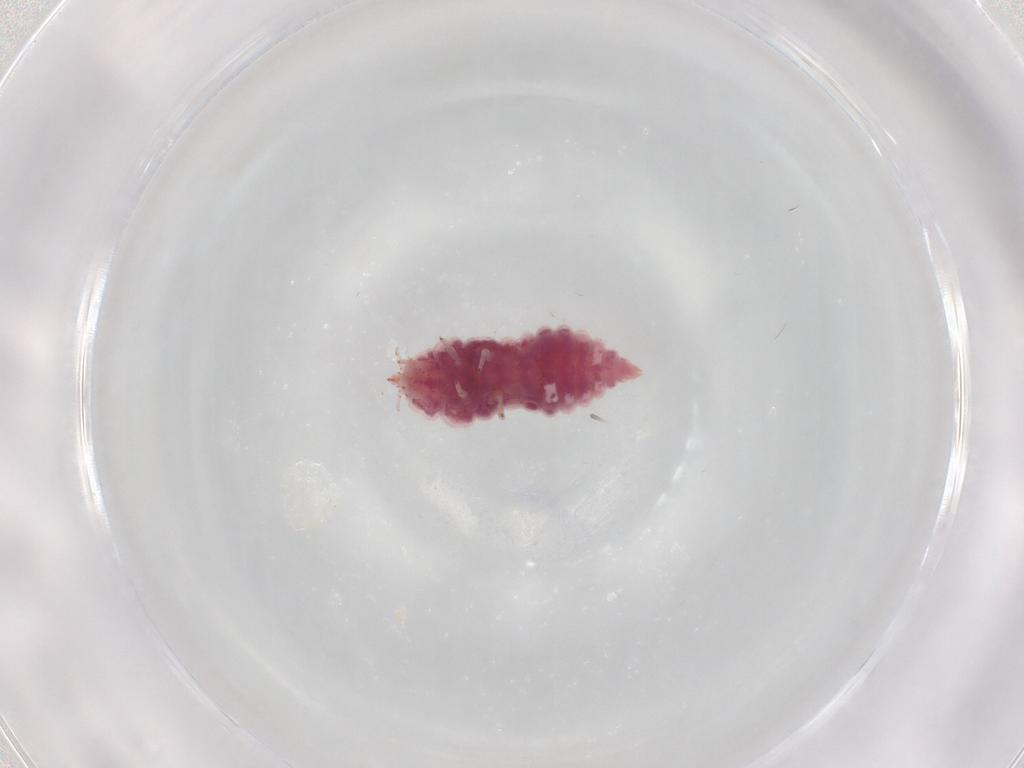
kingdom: Animalia
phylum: Arthropoda
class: Insecta
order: Neuroptera
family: Coniopterygidae
